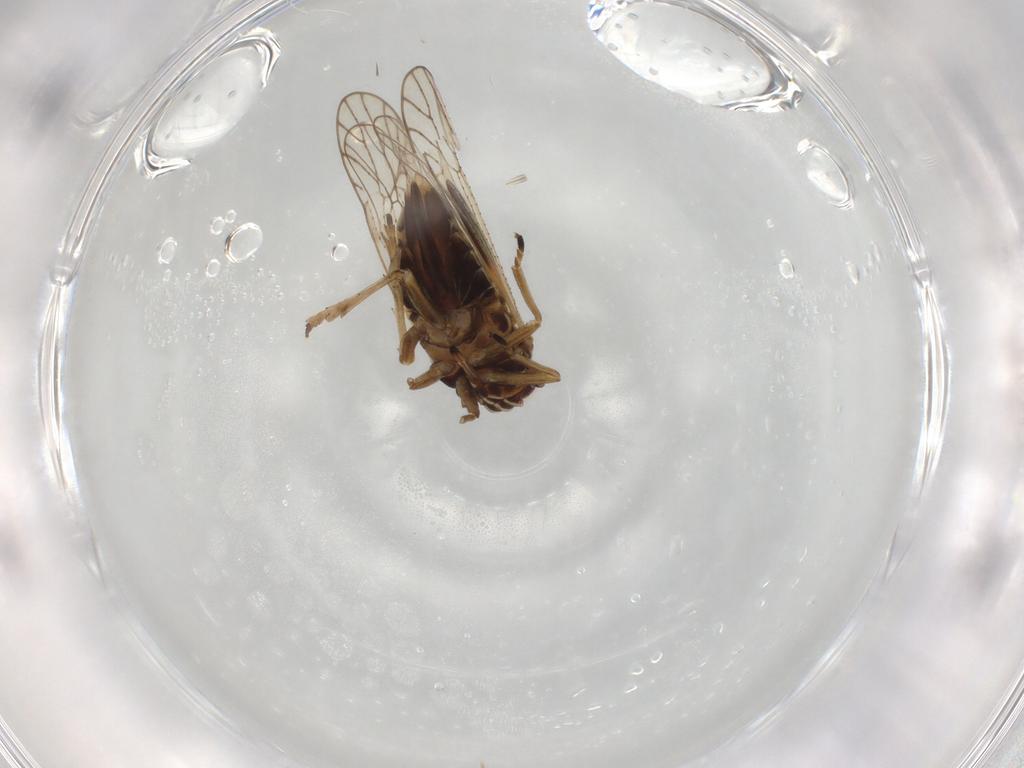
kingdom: Animalia
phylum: Arthropoda
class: Insecta
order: Hemiptera
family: Delphacidae
